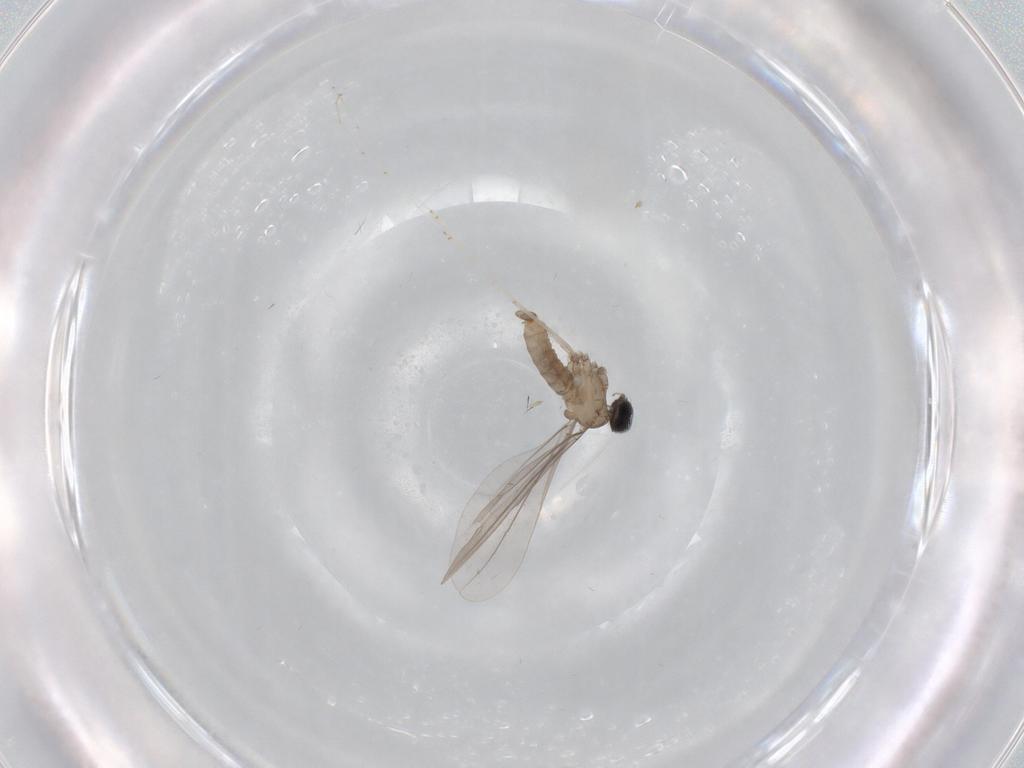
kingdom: Animalia
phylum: Arthropoda
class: Insecta
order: Diptera
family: Cecidomyiidae
